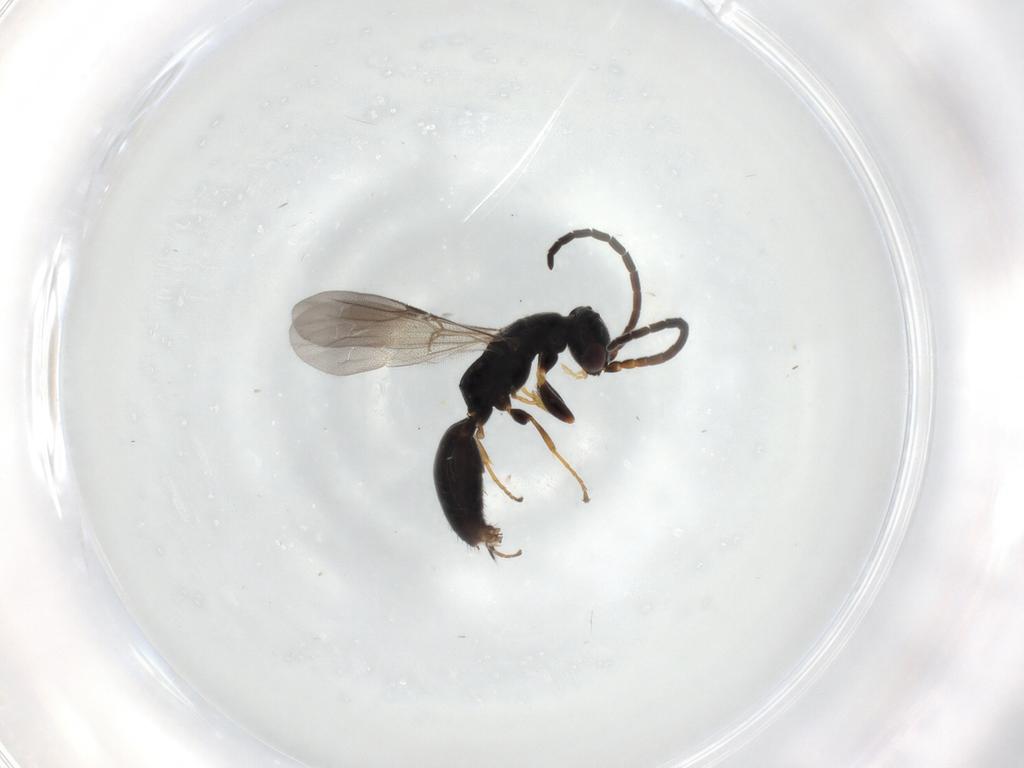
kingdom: Animalia
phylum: Arthropoda
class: Insecta
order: Hymenoptera
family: Bethylidae
